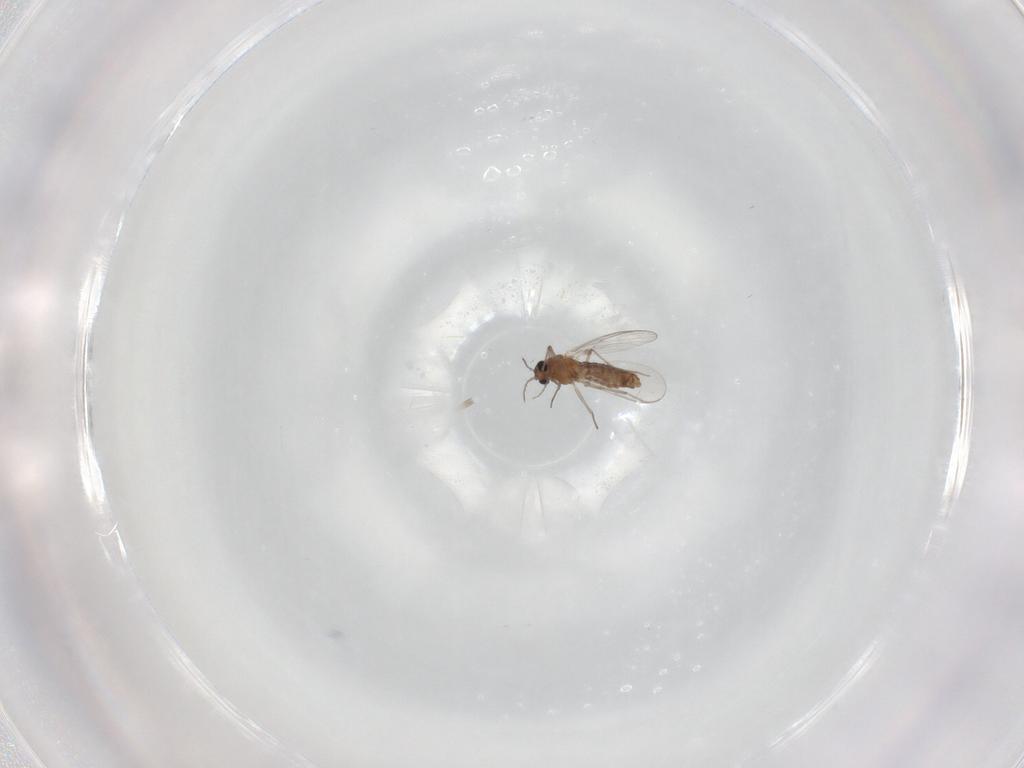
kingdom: Animalia
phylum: Arthropoda
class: Insecta
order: Diptera
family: Chironomidae
